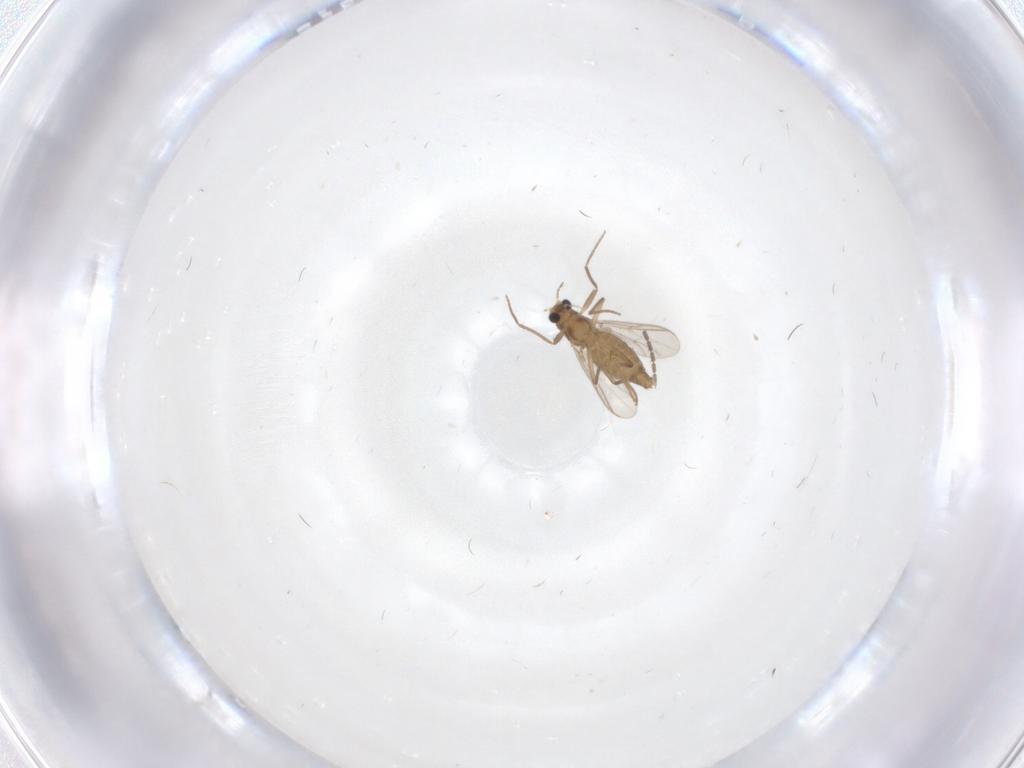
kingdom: Animalia
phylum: Arthropoda
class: Insecta
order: Diptera
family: Chironomidae
